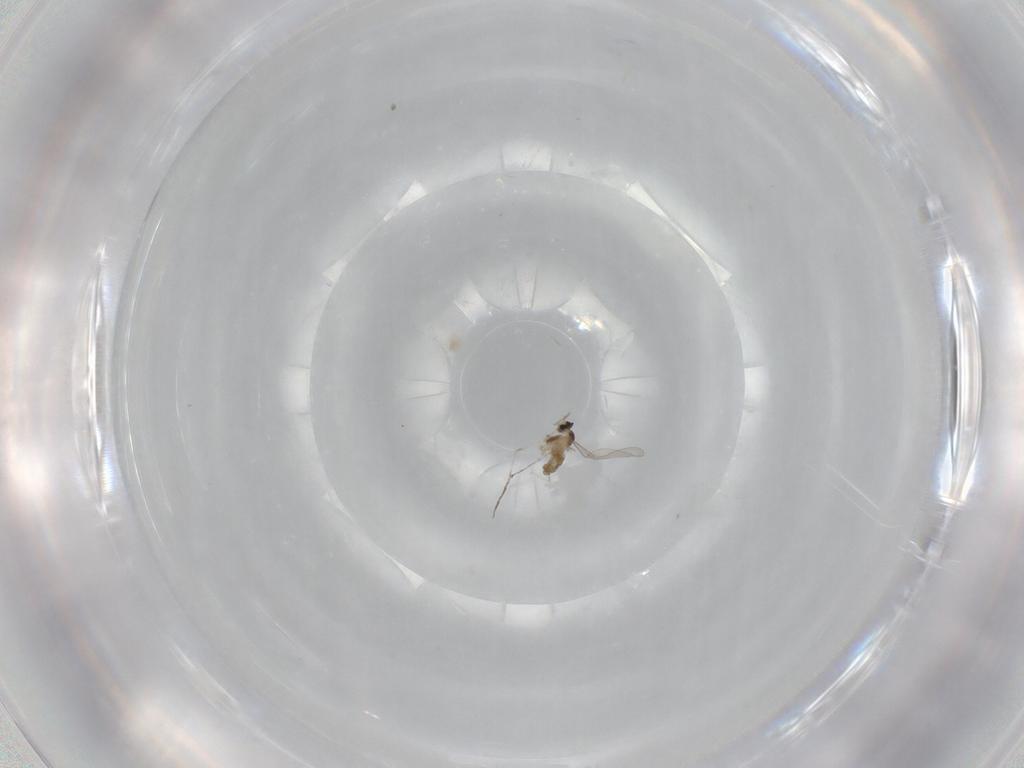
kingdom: Animalia
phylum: Arthropoda
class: Insecta
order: Diptera
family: Cecidomyiidae
